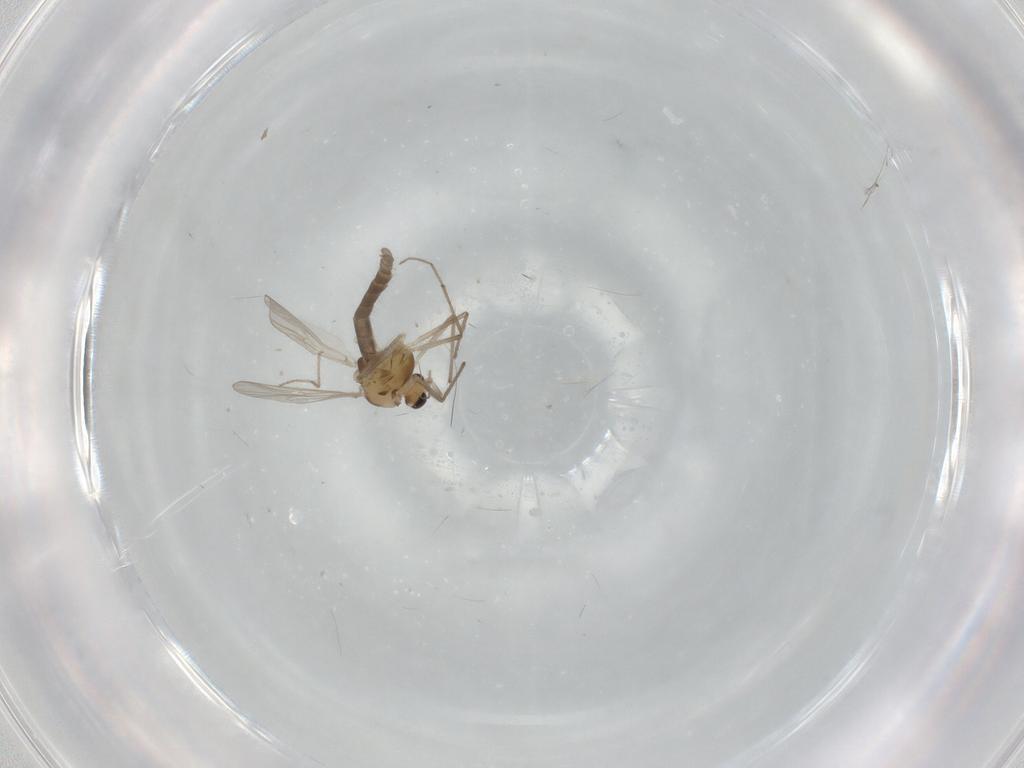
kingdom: Animalia
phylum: Arthropoda
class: Insecta
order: Diptera
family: Chironomidae
